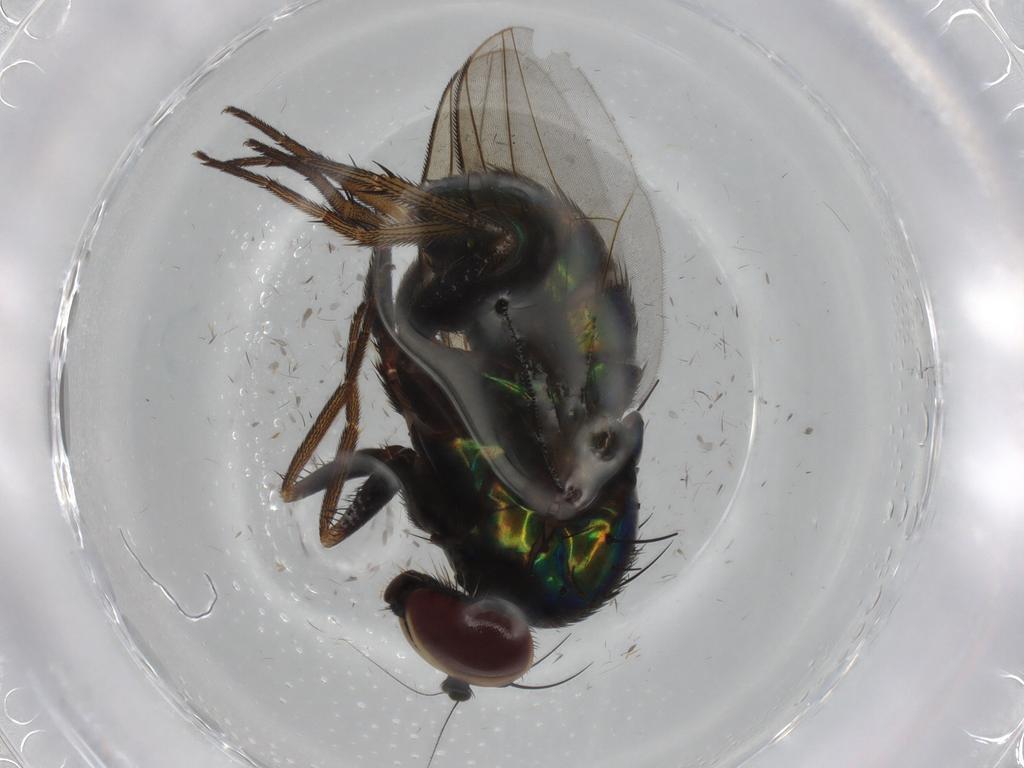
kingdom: Animalia
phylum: Arthropoda
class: Insecta
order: Diptera
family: Dolichopodidae
